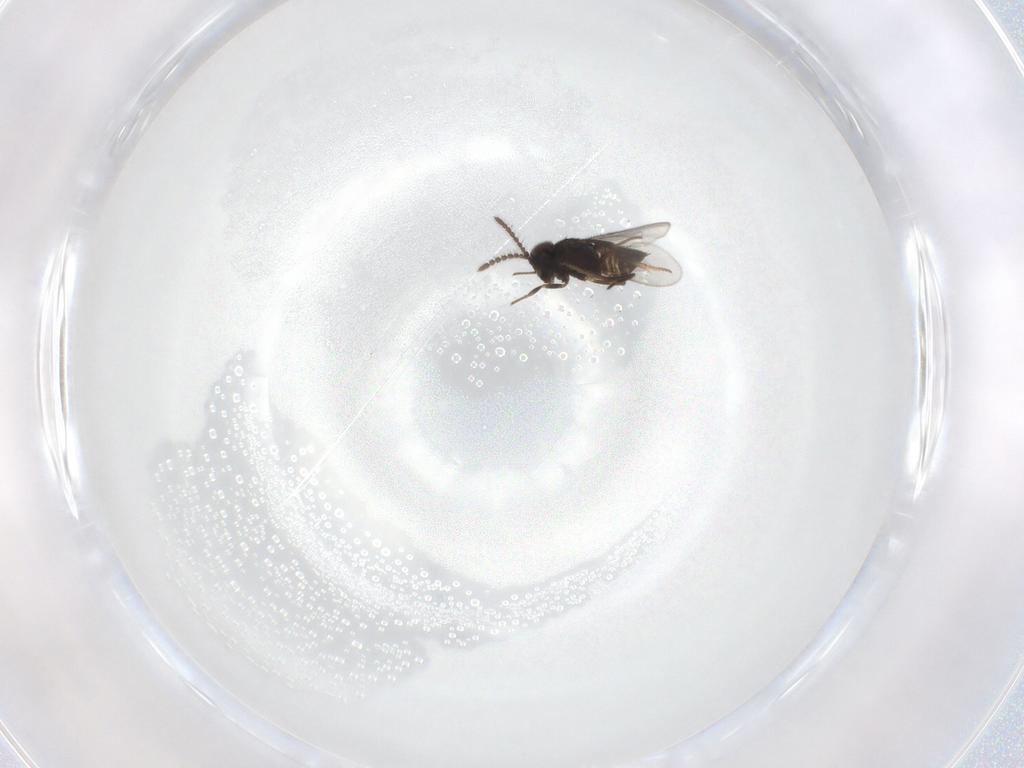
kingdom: Animalia
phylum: Arthropoda
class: Insecta
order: Hymenoptera
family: Encyrtidae
